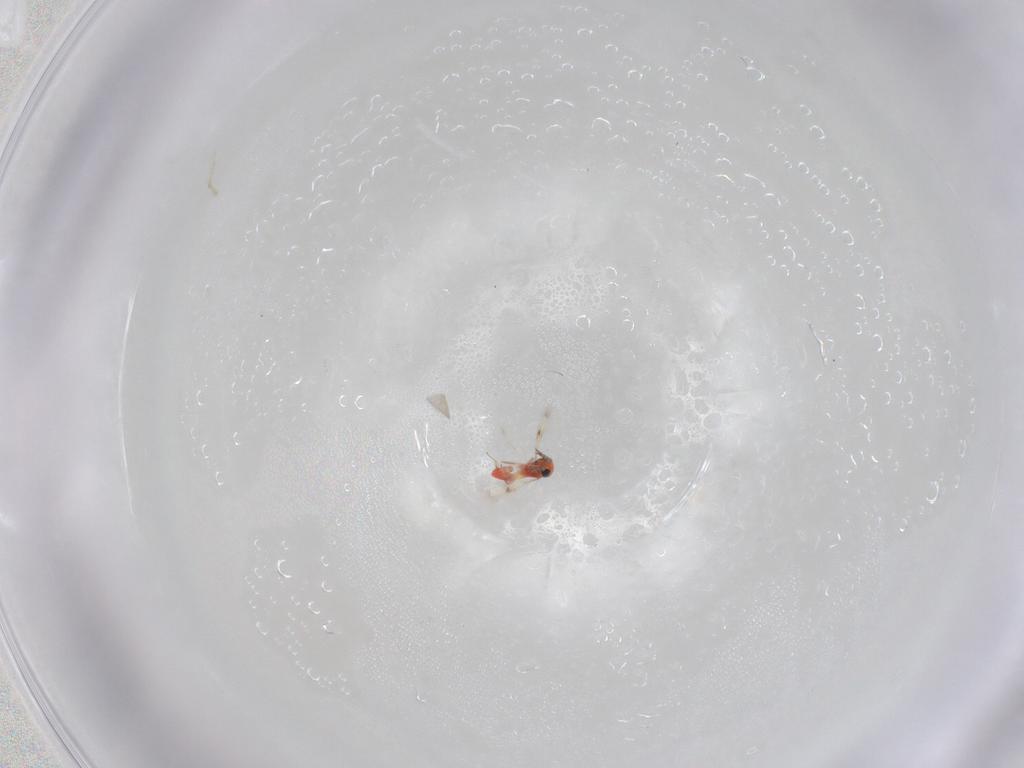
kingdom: Animalia
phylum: Arthropoda
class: Insecta
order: Hymenoptera
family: Trichogrammatidae
